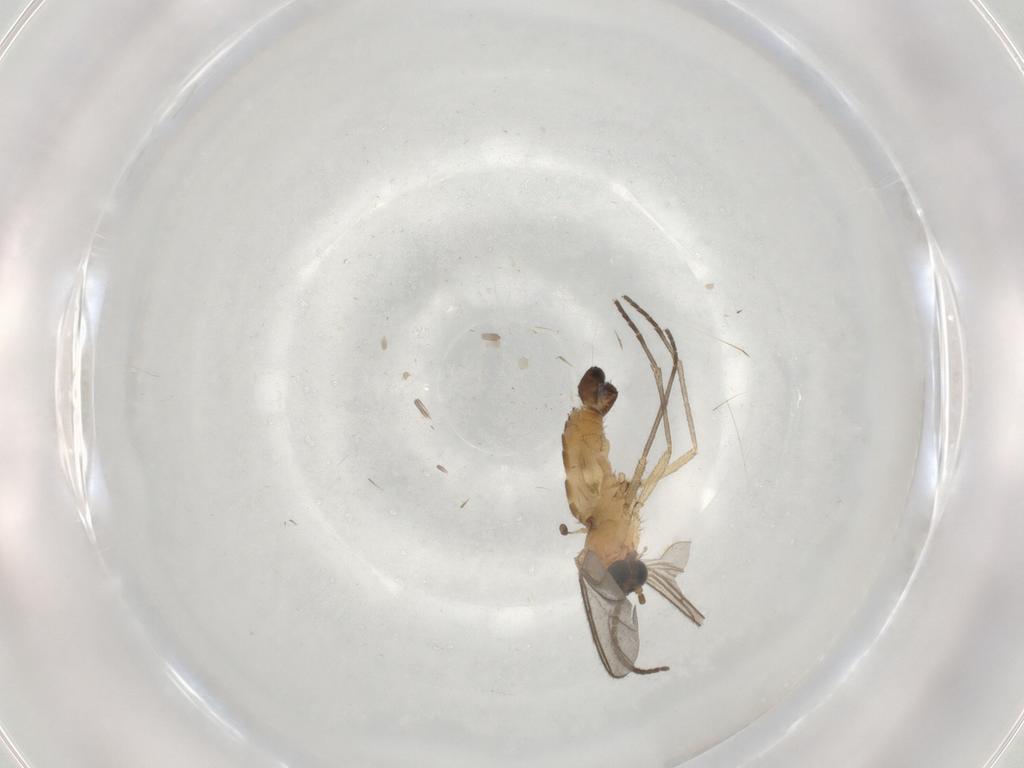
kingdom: Animalia
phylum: Arthropoda
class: Insecta
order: Diptera
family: Sciaridae
